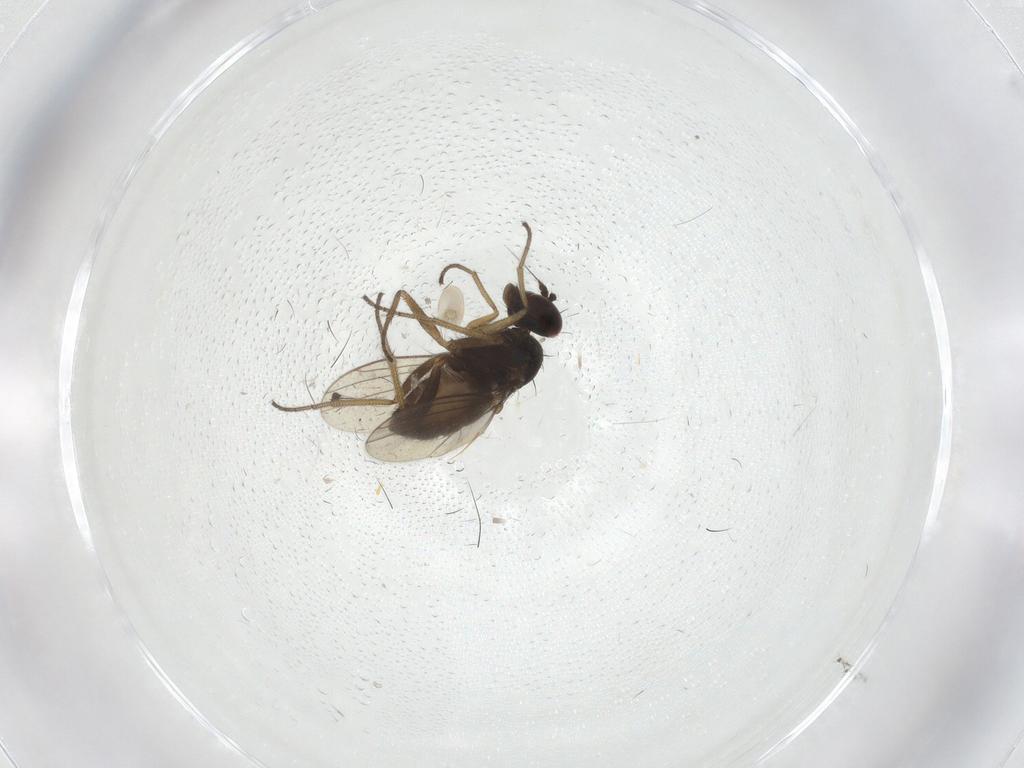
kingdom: Animalia
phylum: Arthropoda
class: Insecta
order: Diptera
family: Dolichopodidae
